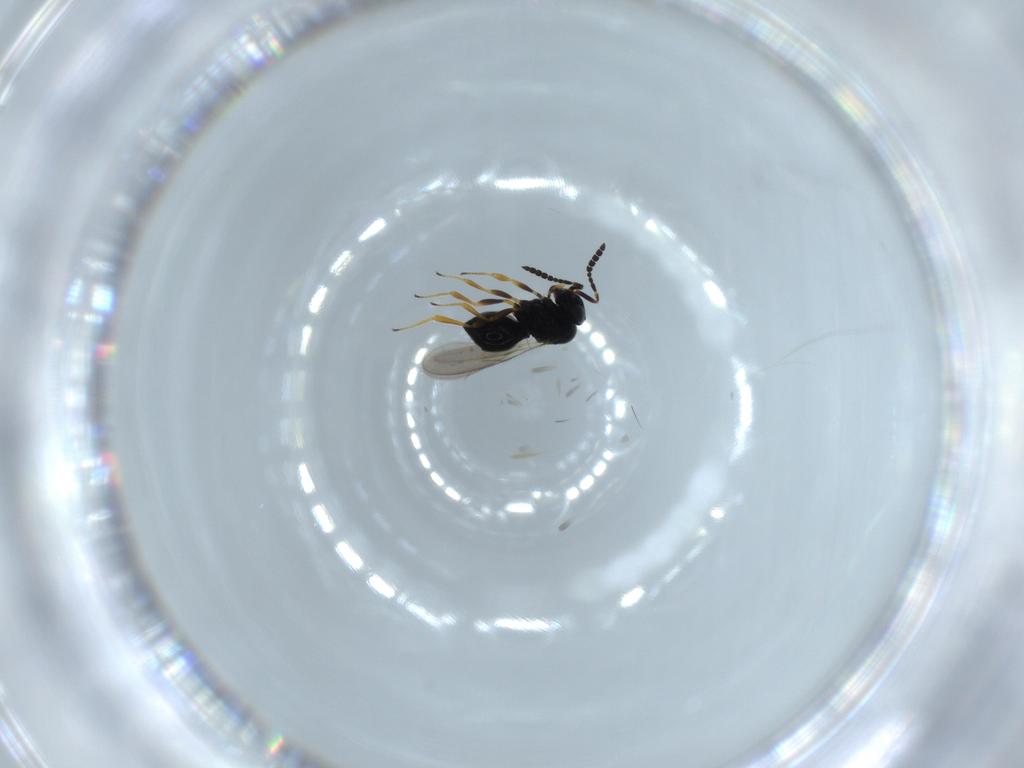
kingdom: Animalia
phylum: Arthropoda
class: Insecta
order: Hymenoptera
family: Scelionidae
